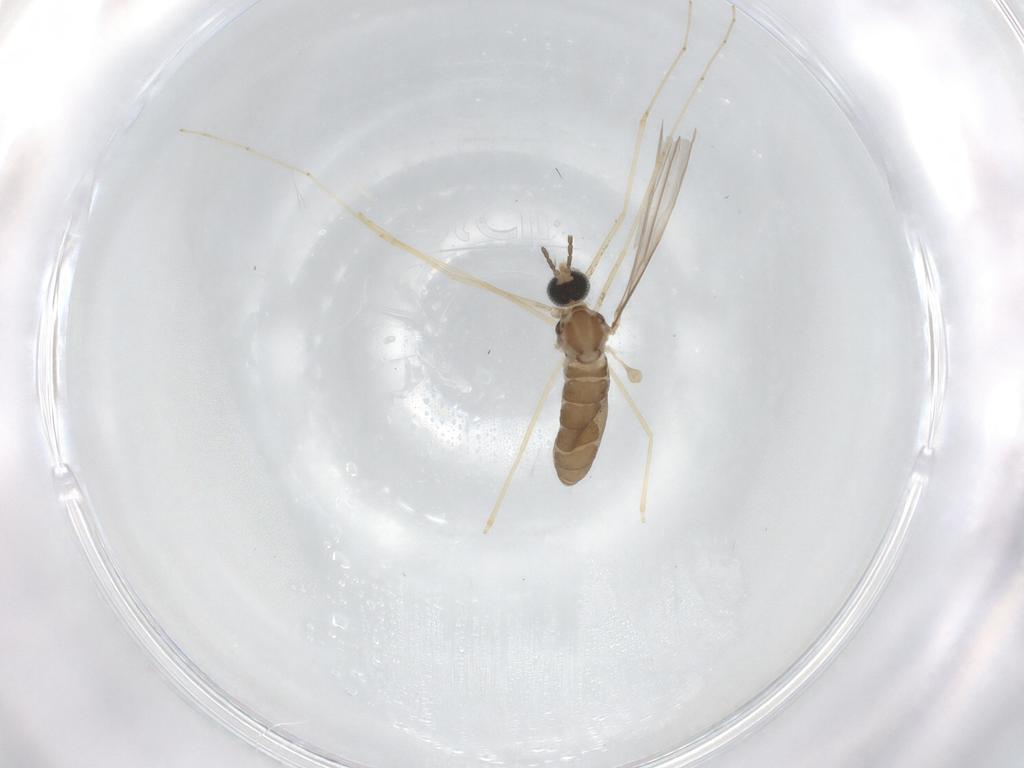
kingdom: Animalia
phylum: Arthropoda
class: Insecta
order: Diptera
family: Cecidomyiidae
